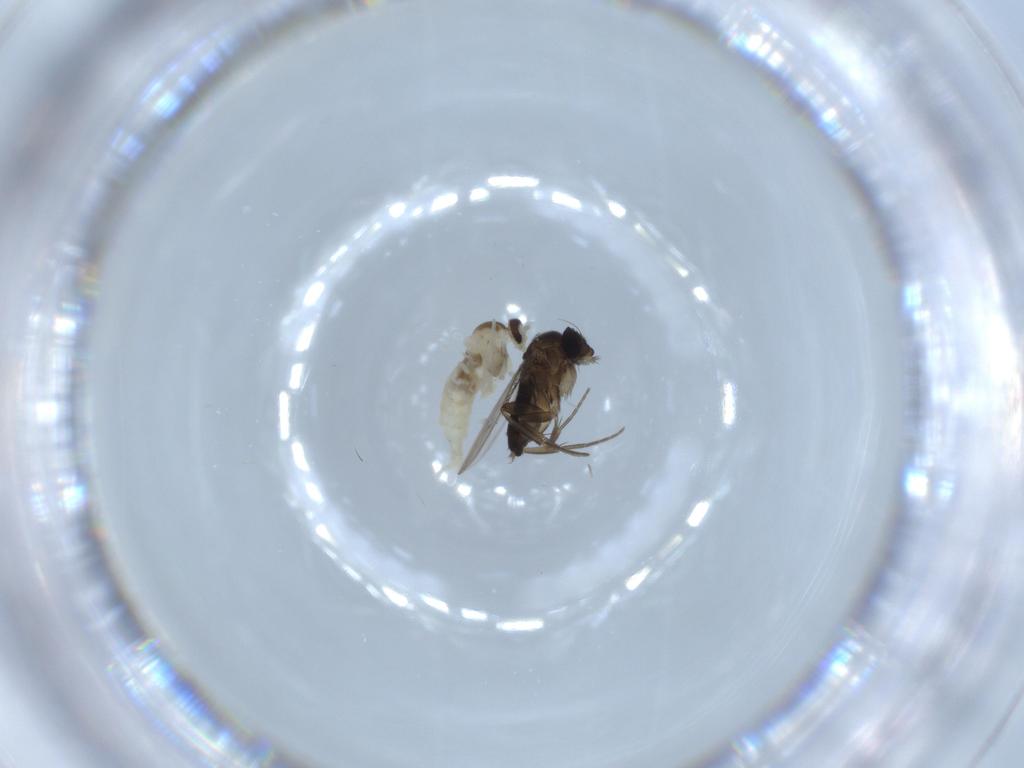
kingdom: Animalia
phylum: Arthropoda
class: Insecta
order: Diptera
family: Phoridae
